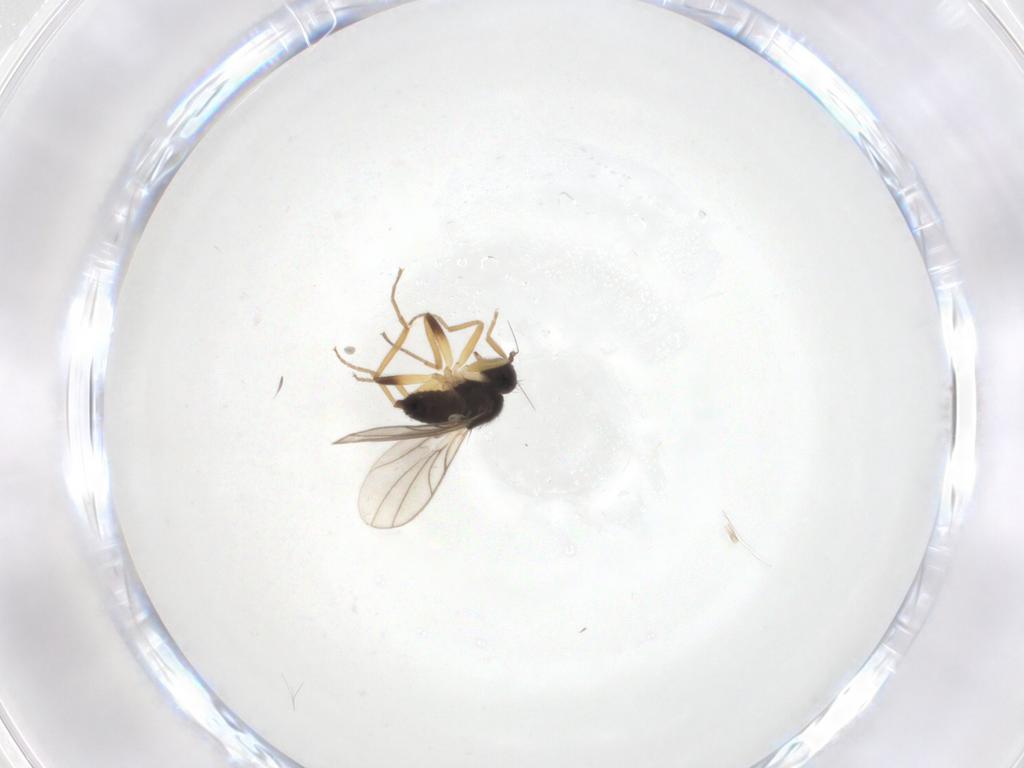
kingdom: Animalia
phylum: Arthropoda
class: Insecta
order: Diptera
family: Hybotidae
